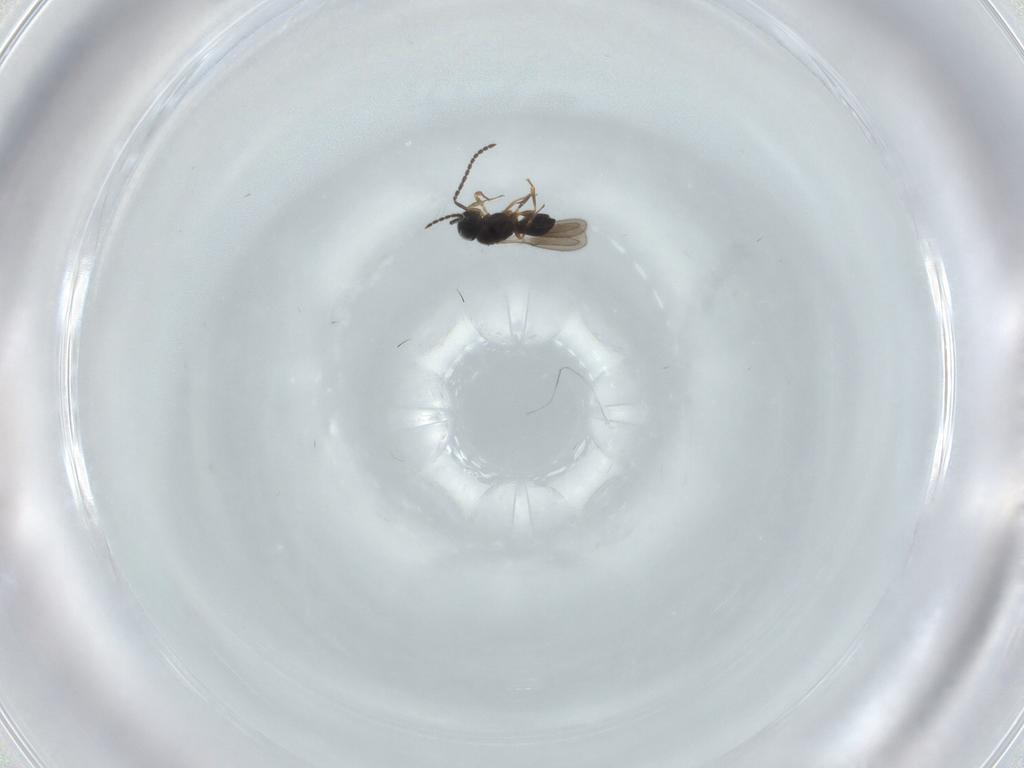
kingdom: Animalia
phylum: Arthropoda
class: Insecta
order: Hymenoptera
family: Scelionidae
